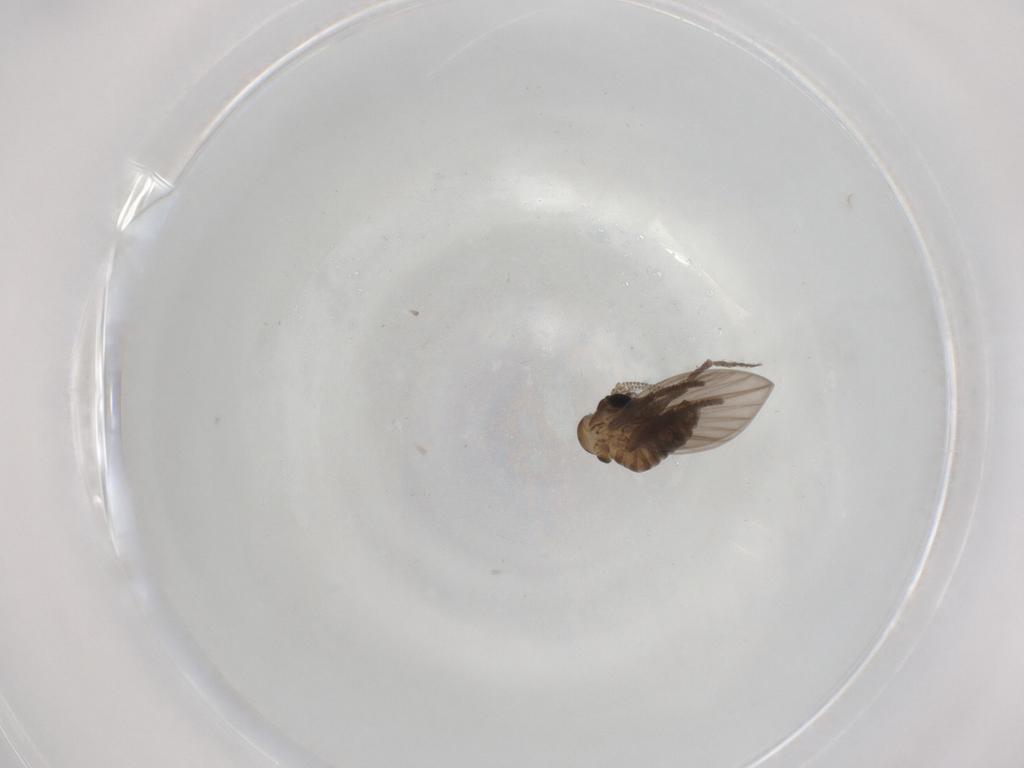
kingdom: Animalia
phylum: Arthropoda
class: Insecta
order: Diptera
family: Psychodidae
